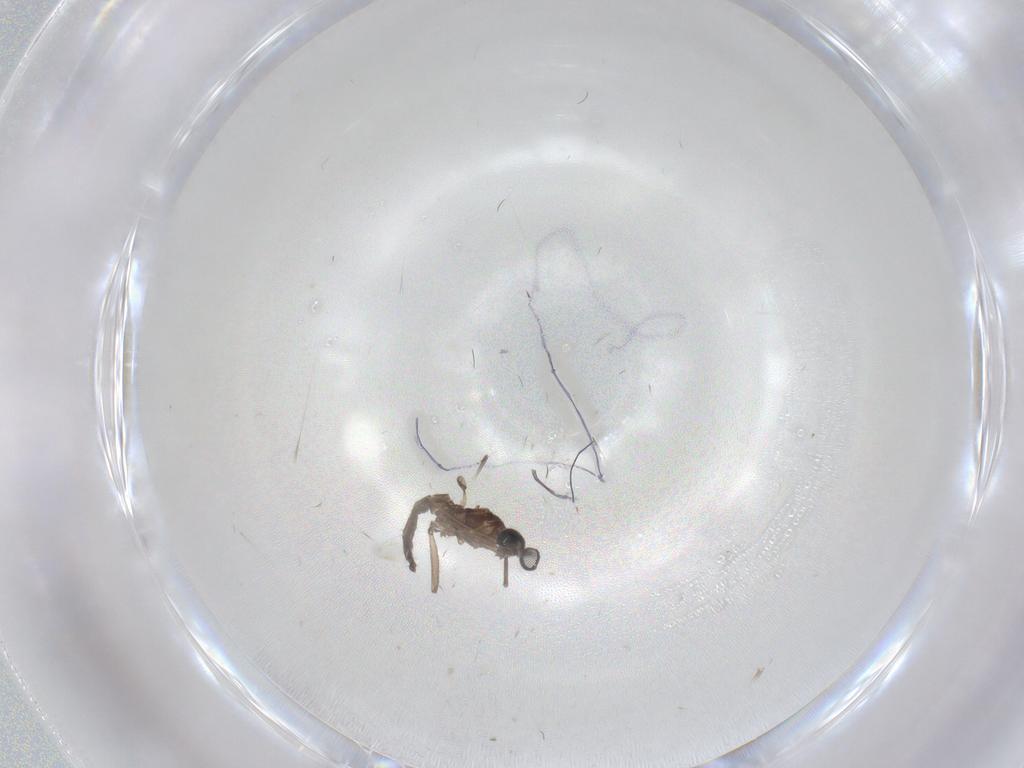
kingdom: Animalia
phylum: Arthropoda
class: Insecta
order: Diptera
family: Sciaridae
